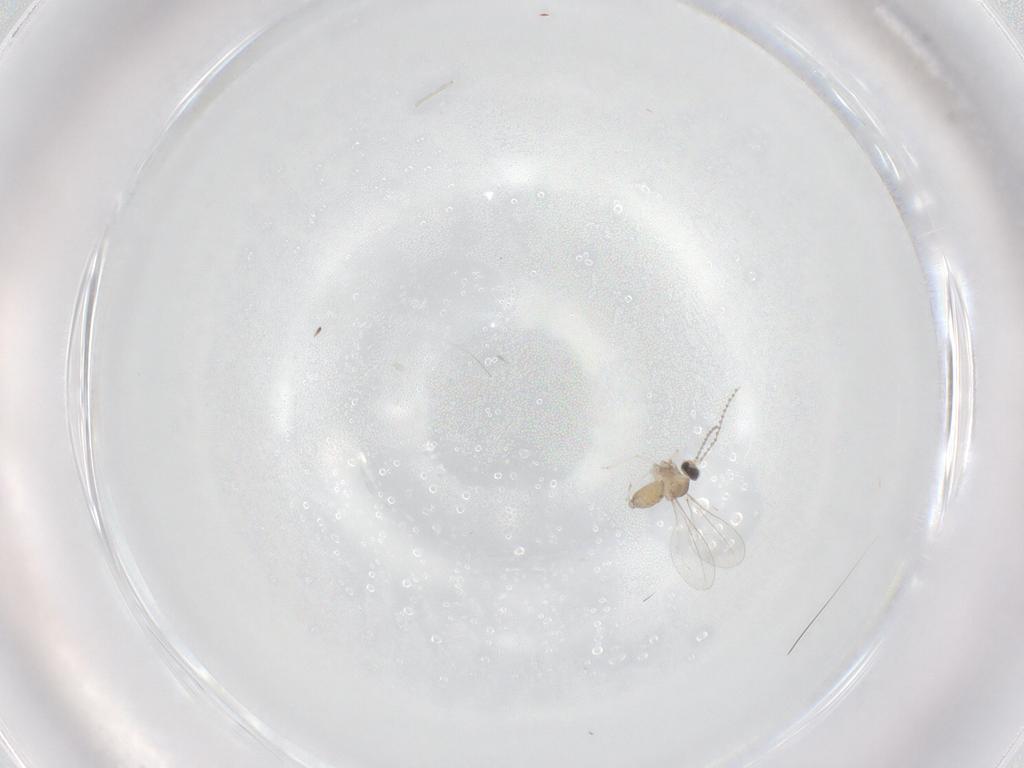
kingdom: Animalia
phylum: Arthropoda
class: Insecta
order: Diptera
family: Cecidomyiidae
